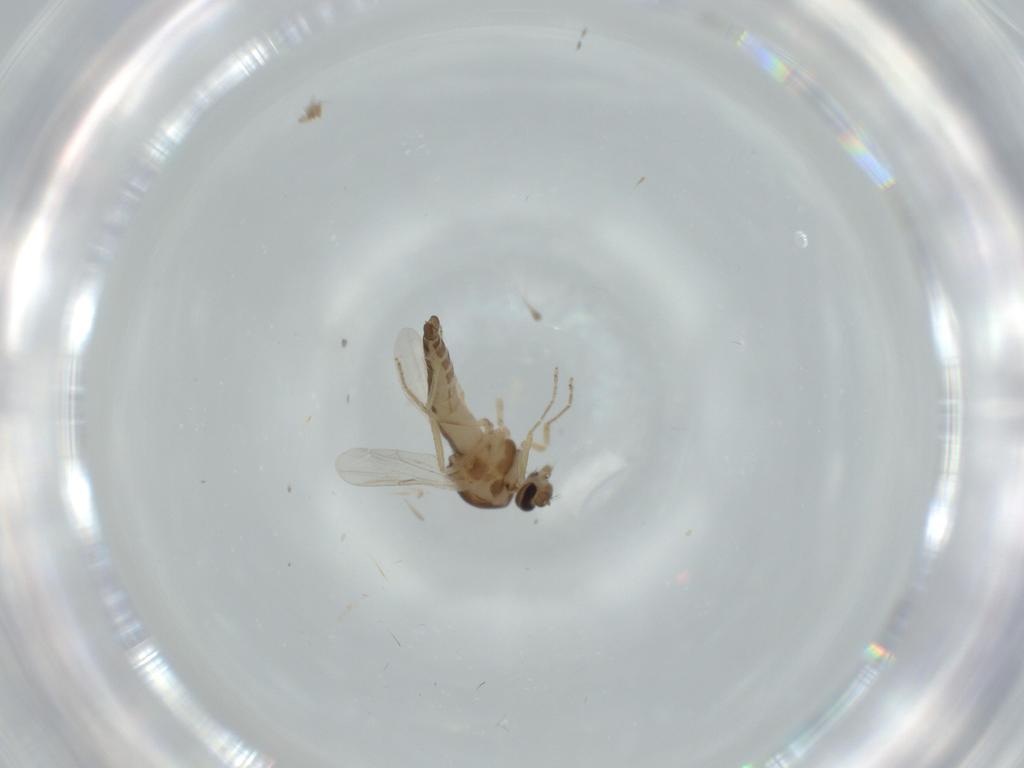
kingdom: Animalia
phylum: Arthropoda
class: Insecta
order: Diptera
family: Ceratopogonidae
